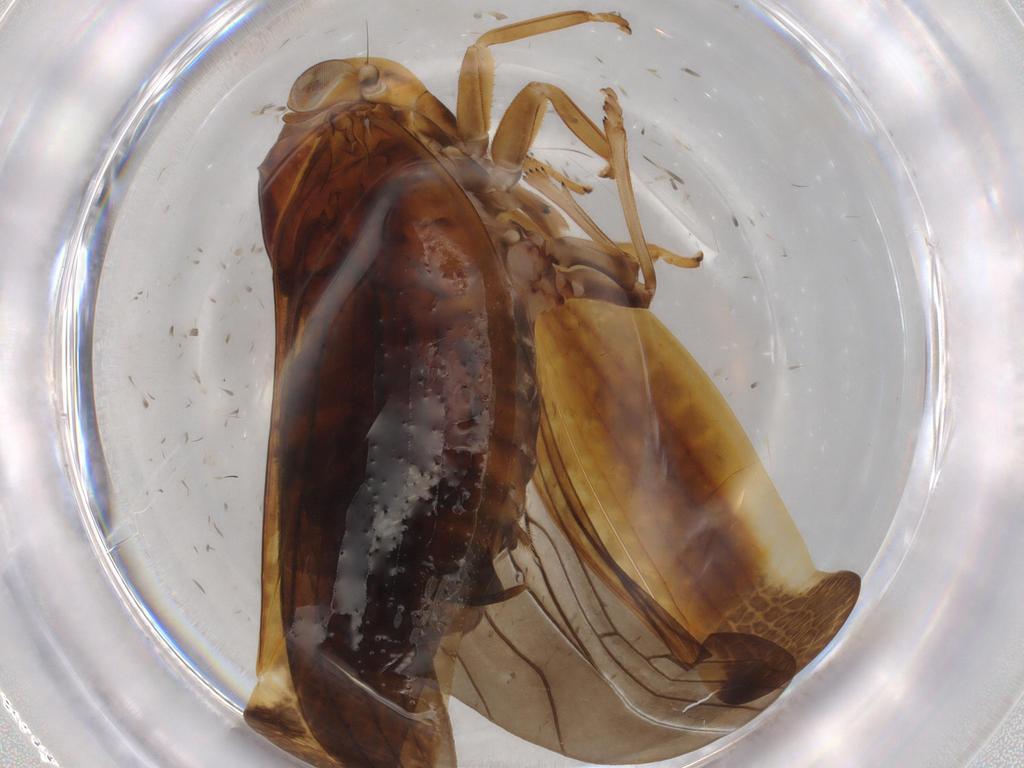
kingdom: Animalia
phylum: Arthropoda
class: Insecta
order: Hemiptera
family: Nogodinidae
